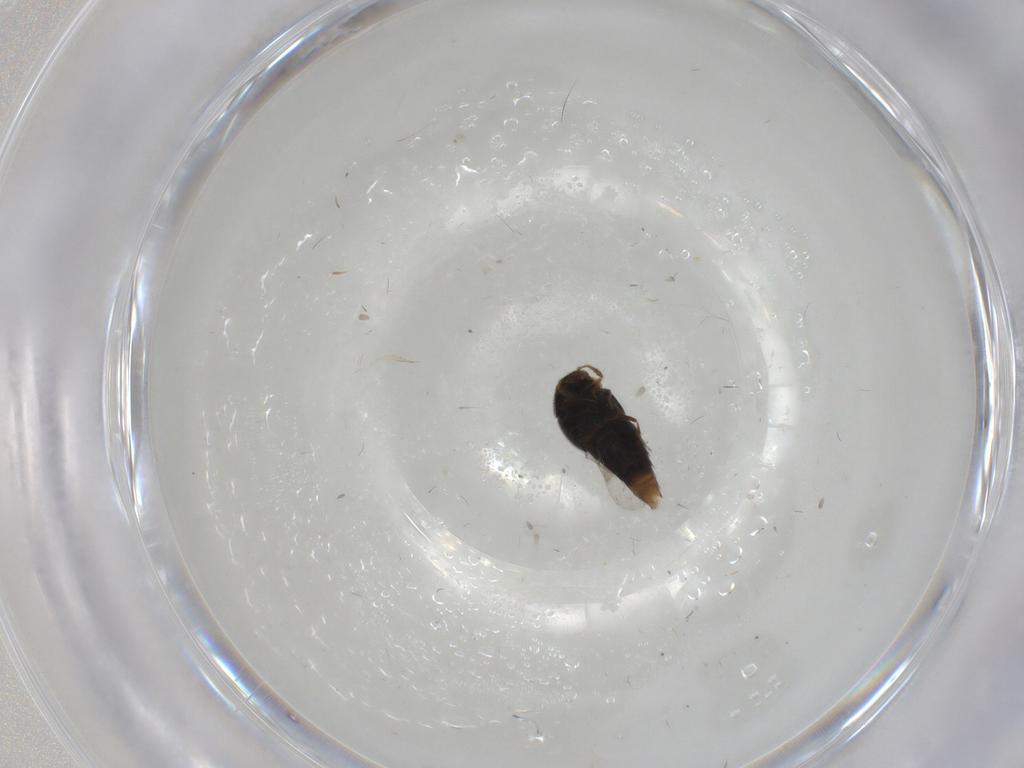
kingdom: Animalia
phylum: Arthropoda
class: Insecta
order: Coleoptera
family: Staphylinidae
